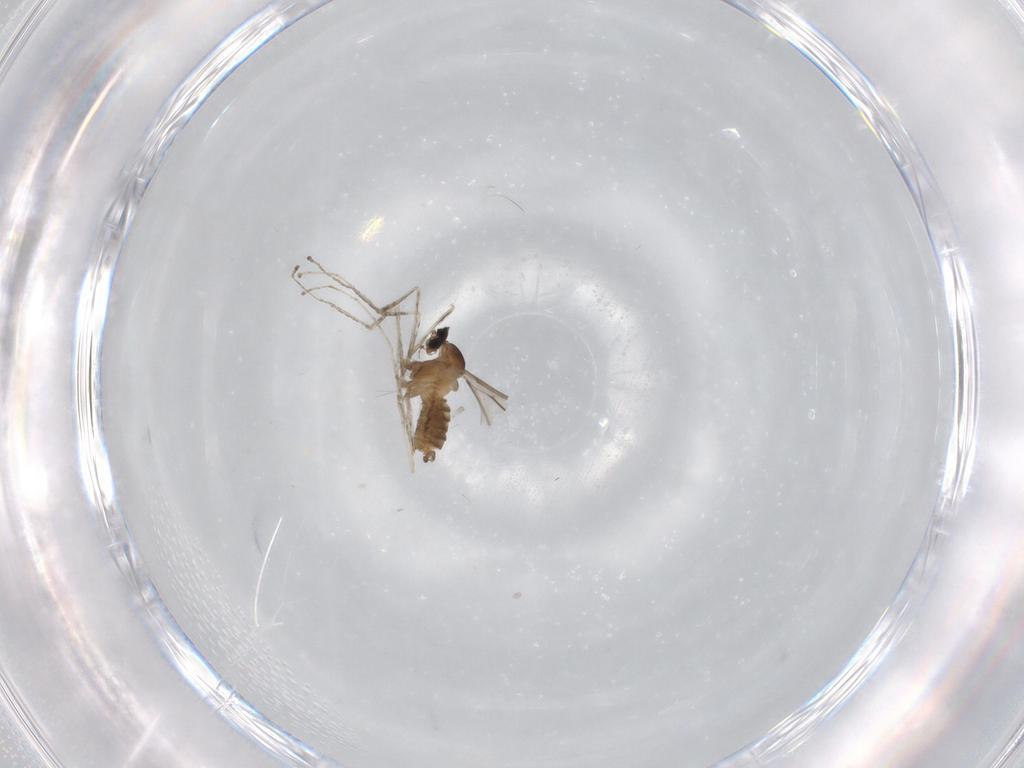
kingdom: Animalia
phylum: Arthropoda
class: Insecta
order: Diptera
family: Cecidomyiidae
